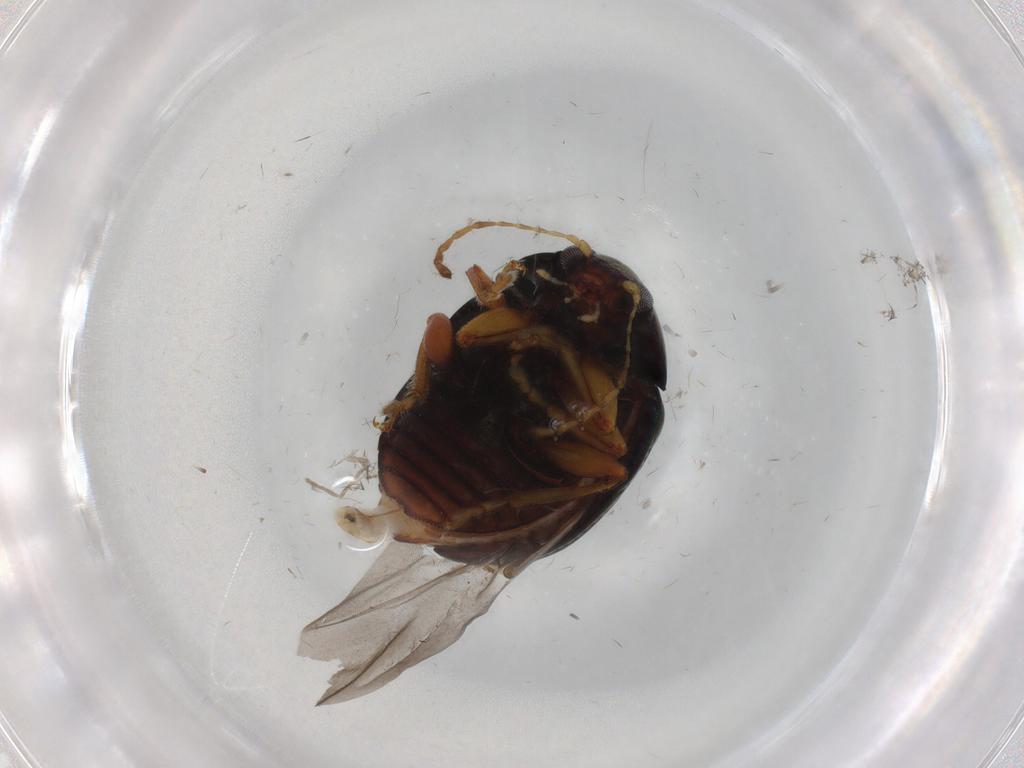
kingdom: Animalia
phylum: Arthropoda
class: Insecta
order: Coleoptera
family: Chrysomelidae
